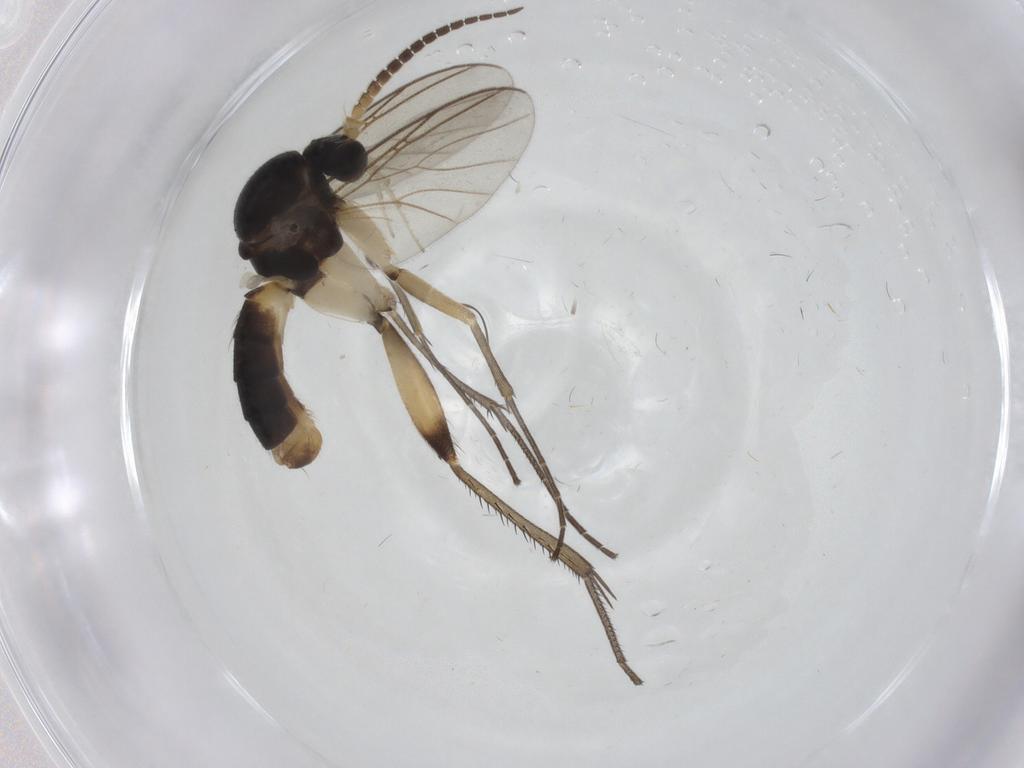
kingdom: Animalia
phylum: Arthropoda
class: Insecta
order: Diptera
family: Mycetophilidae
